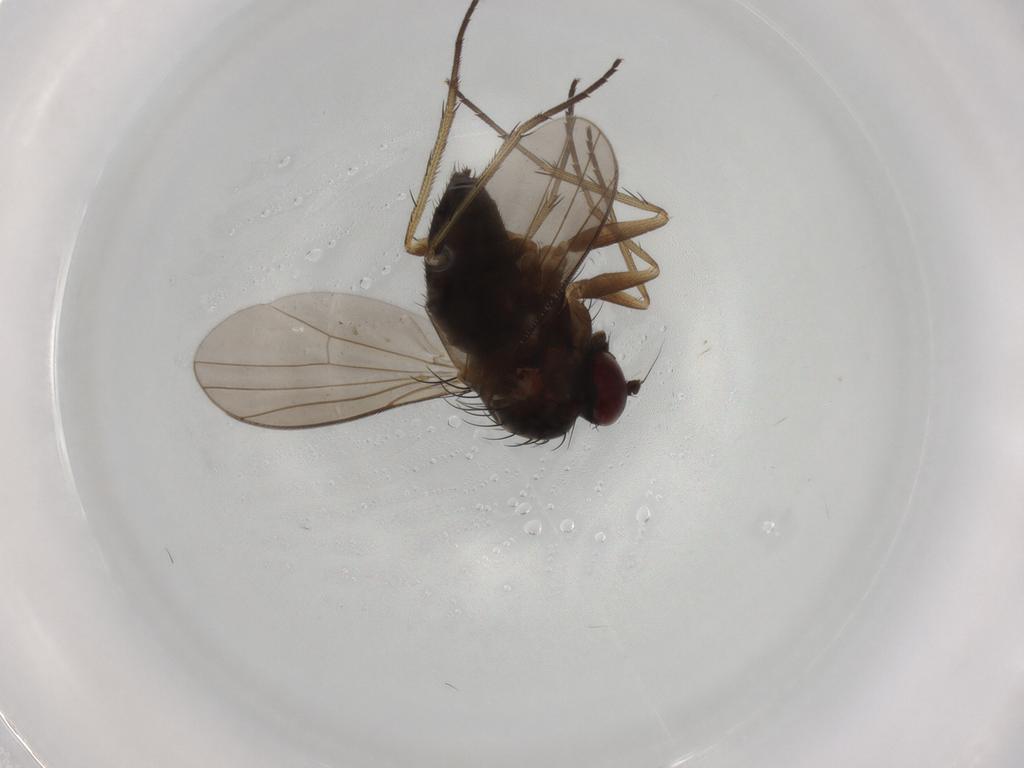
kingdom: Animalia
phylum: Arthropoda
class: Insecta
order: Diptera
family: Dolichopodidae
